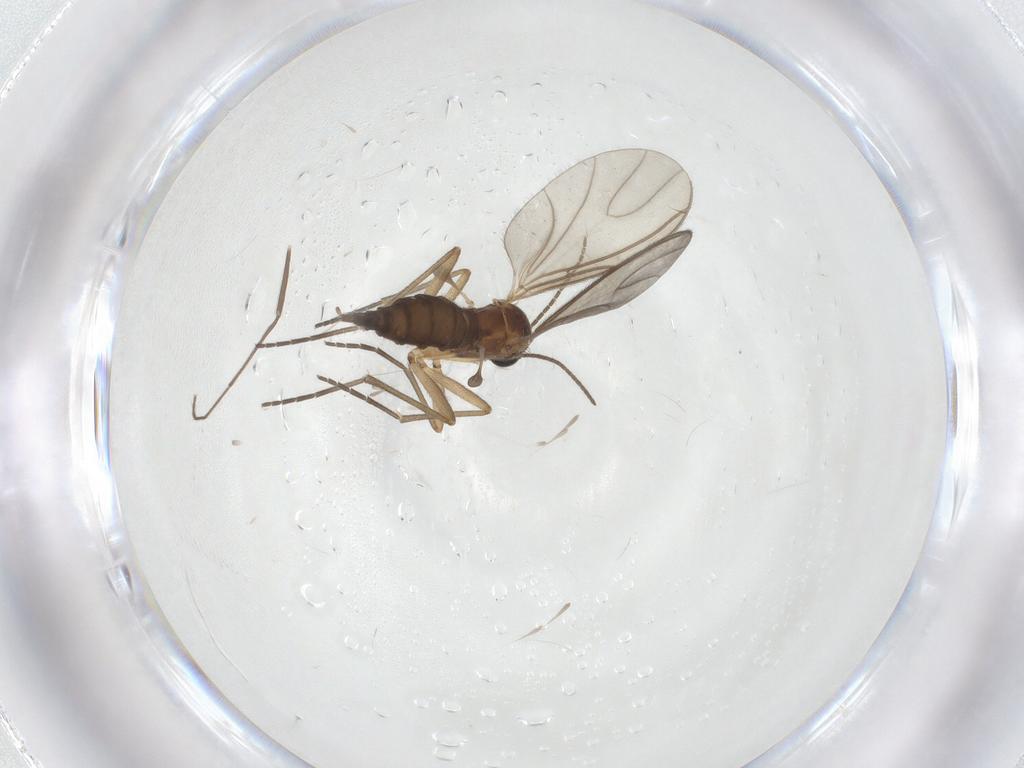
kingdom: Animalia
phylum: Arthropoda
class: Insecta
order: Diptera
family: Sciaridae
